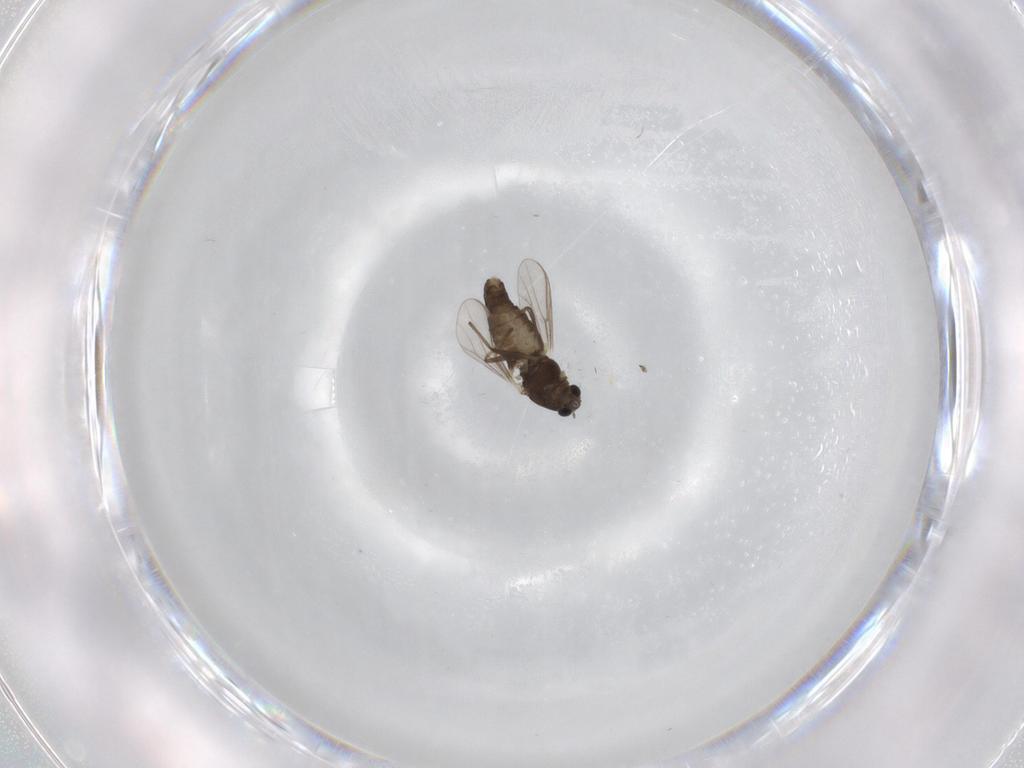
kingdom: Animalia
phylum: Arthropoda
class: Insecta
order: Diptera
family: Chironomidae
